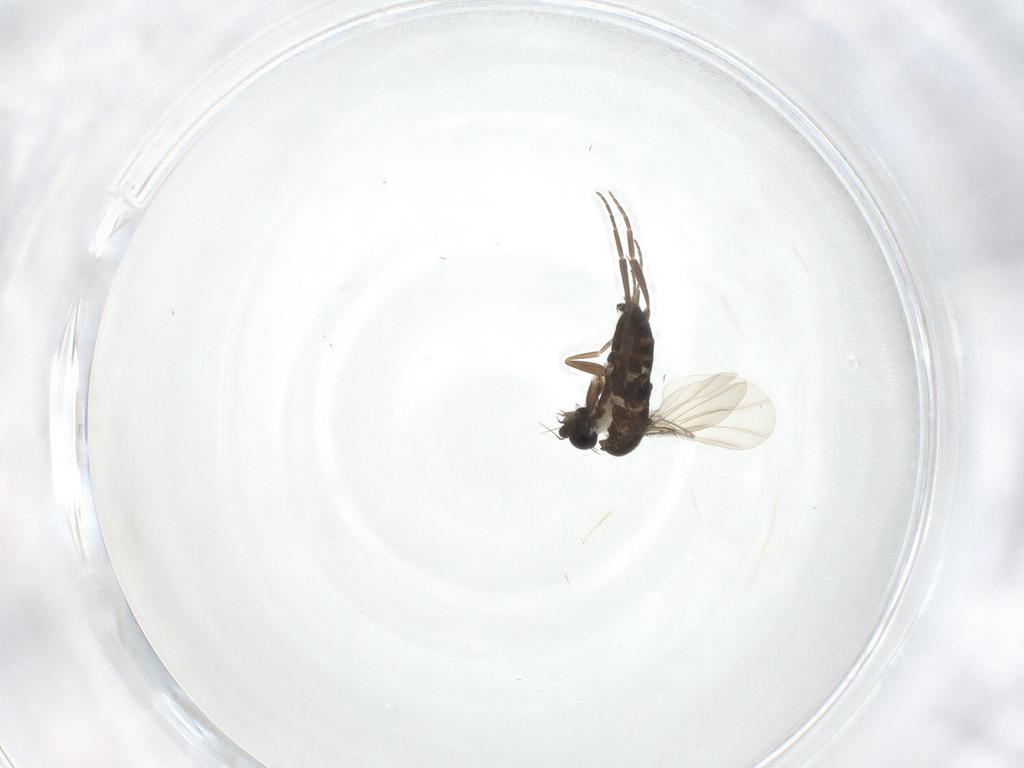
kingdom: Animalia
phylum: Arthropoda
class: Insecta
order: Diptera
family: Phoridae
